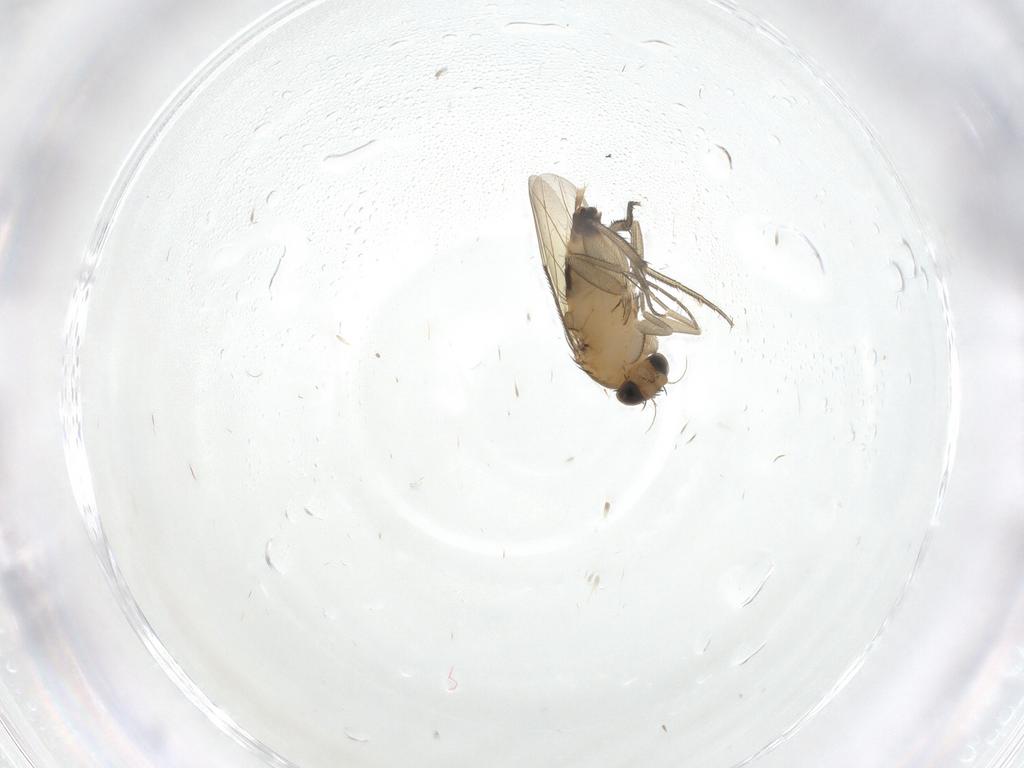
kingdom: Animalia
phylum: Arthropoda
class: Insecta
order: Diptera
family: Phoridae
